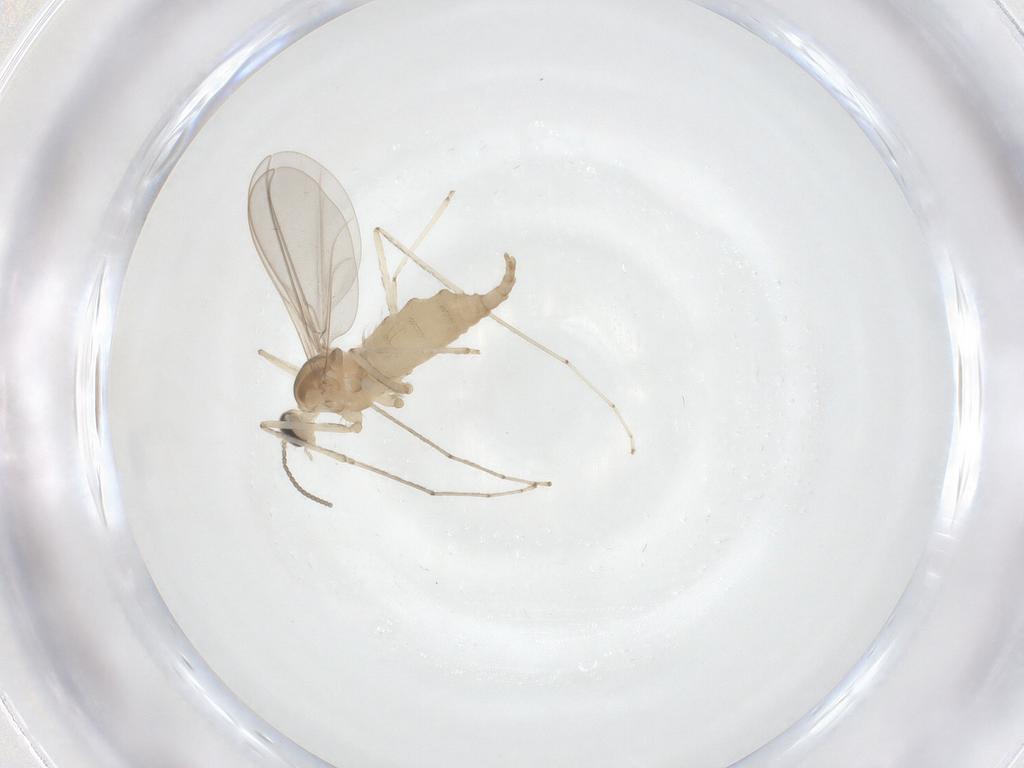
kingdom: Animalia
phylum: Arthropoda
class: Insecta
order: Diptera
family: Cecidomyiidae
